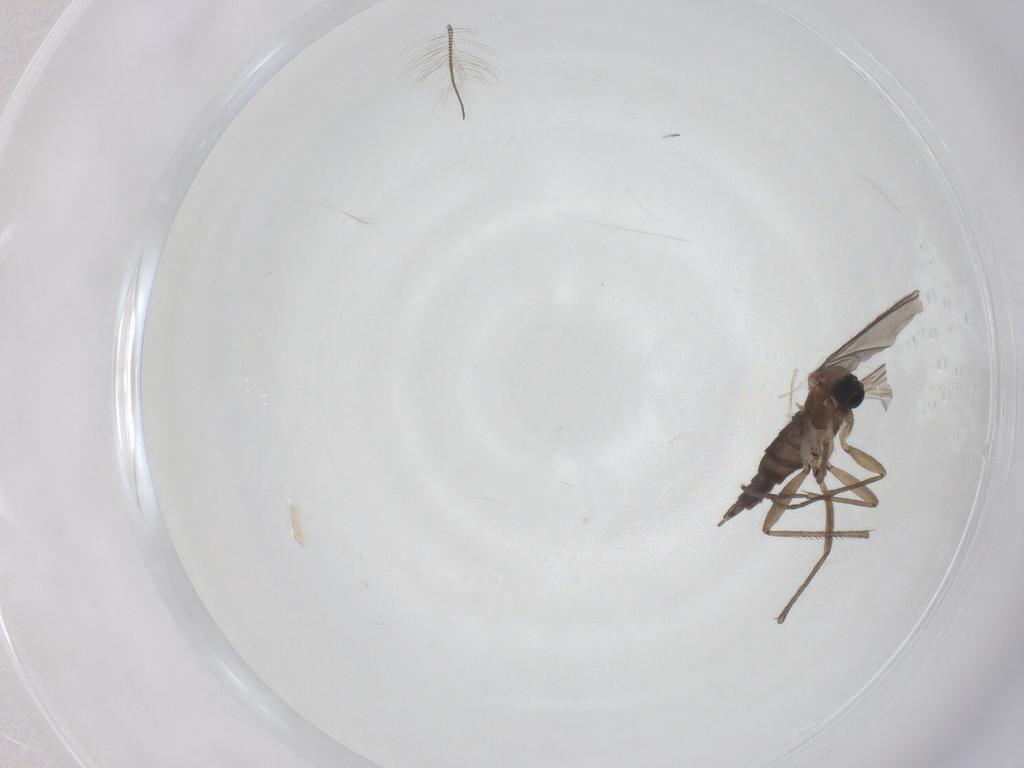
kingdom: Animalia
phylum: Arthropoda
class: Insecta
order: Diptera
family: Sciaridae
